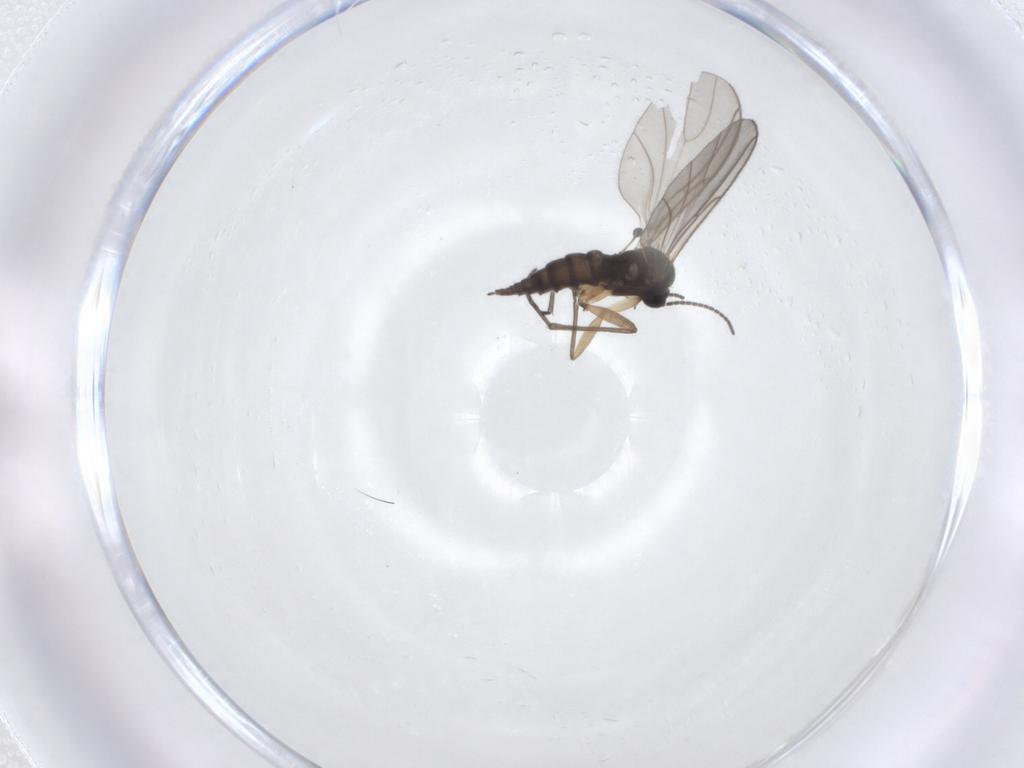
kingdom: Animalia
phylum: Arthropoda
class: Insecta
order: Diptera
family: Sciaridae
